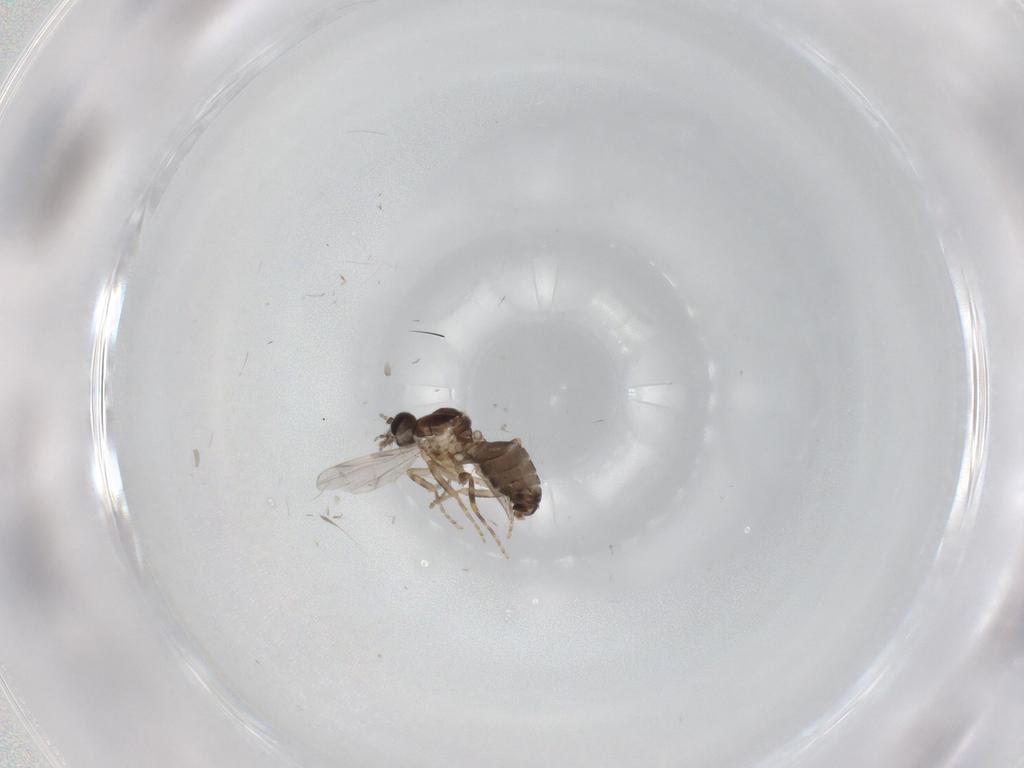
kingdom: Animalia
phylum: Arthropoda
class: Insecta
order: Diptera
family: Ceratopogonidae
